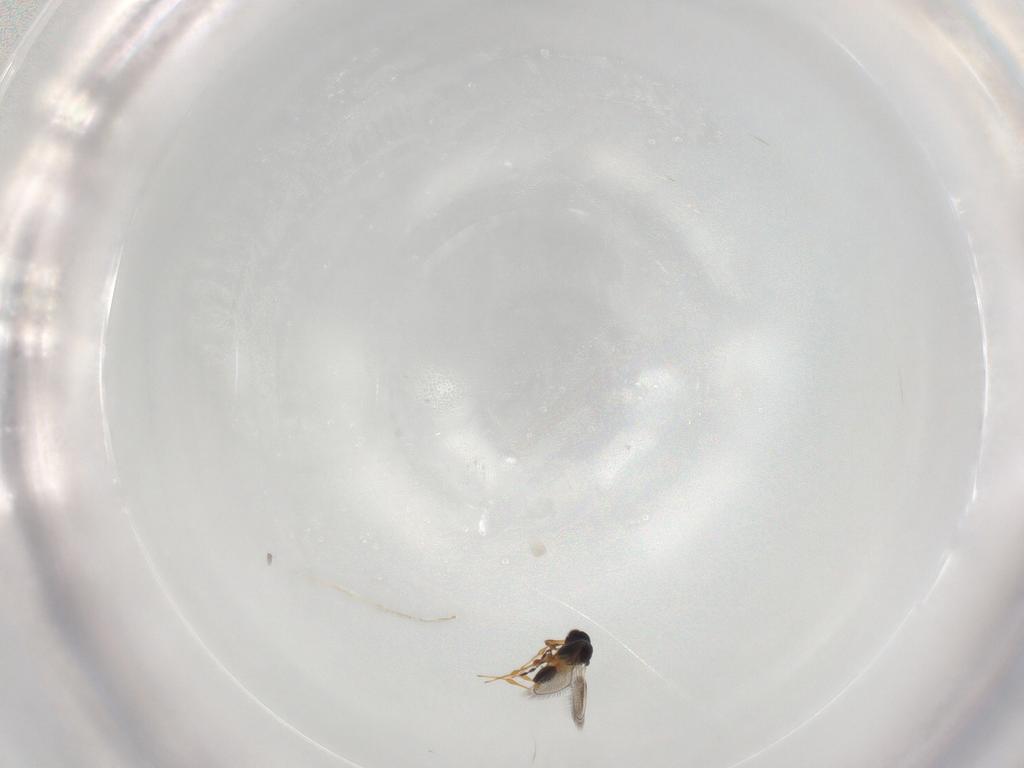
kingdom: Animalia
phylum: Arthropoda
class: Insecta
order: Hymenoptera
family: Platygastridae
